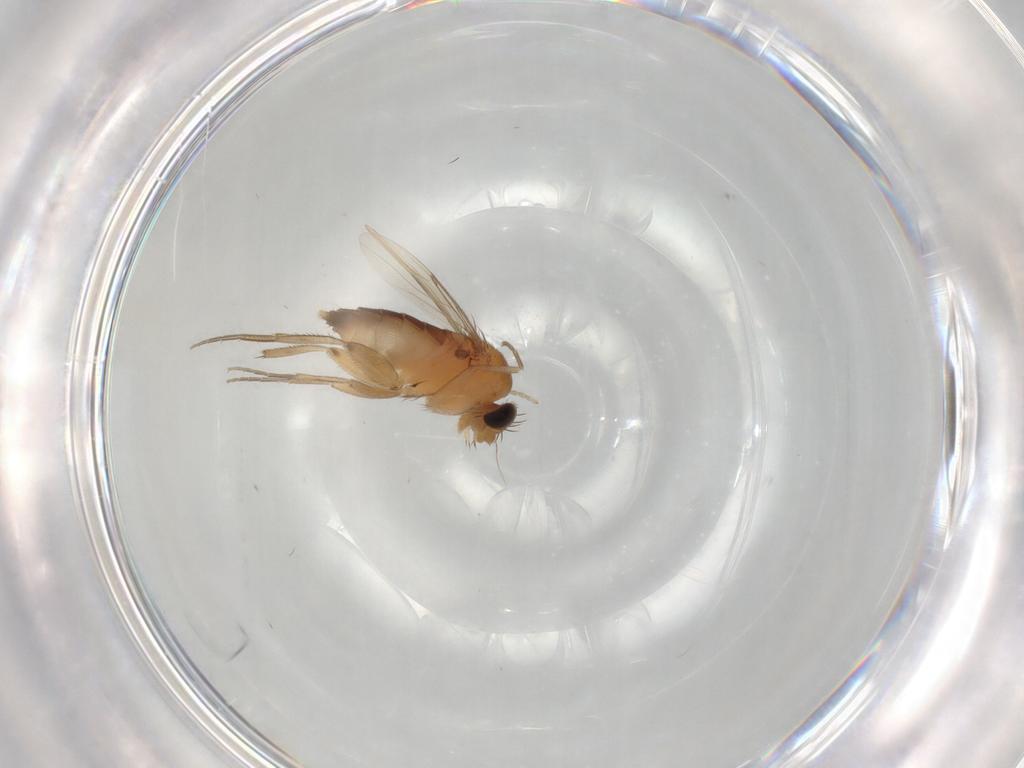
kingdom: Animalia
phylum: Arthropoda
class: Insecta
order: Diptera
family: Phoridae
